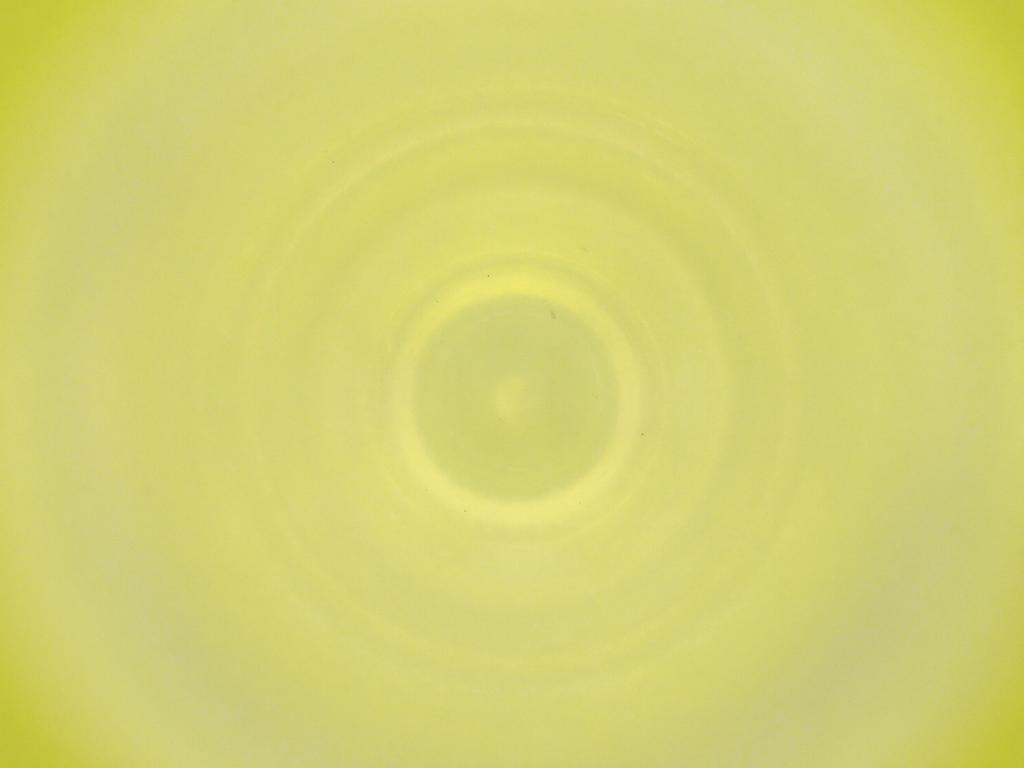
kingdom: Animalia
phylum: Arthropoda
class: Insecta
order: Diptera
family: Cecidomyiidae
